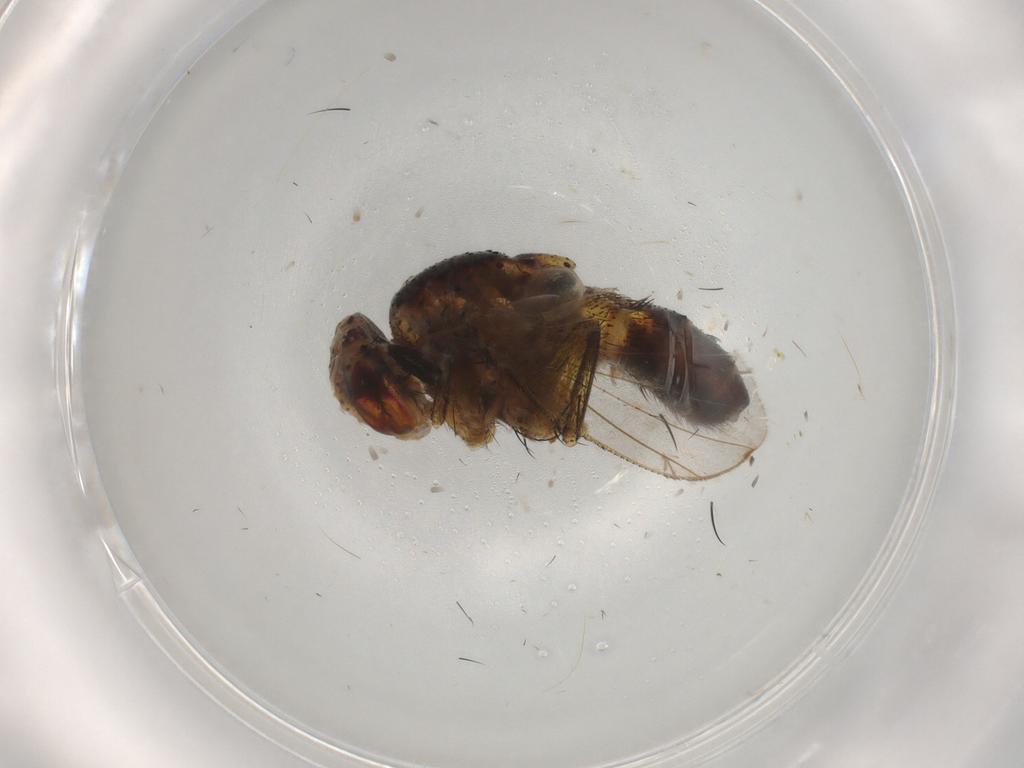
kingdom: Animalia
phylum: Arthropoda
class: Insecta
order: Diptera
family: Chironomidae
